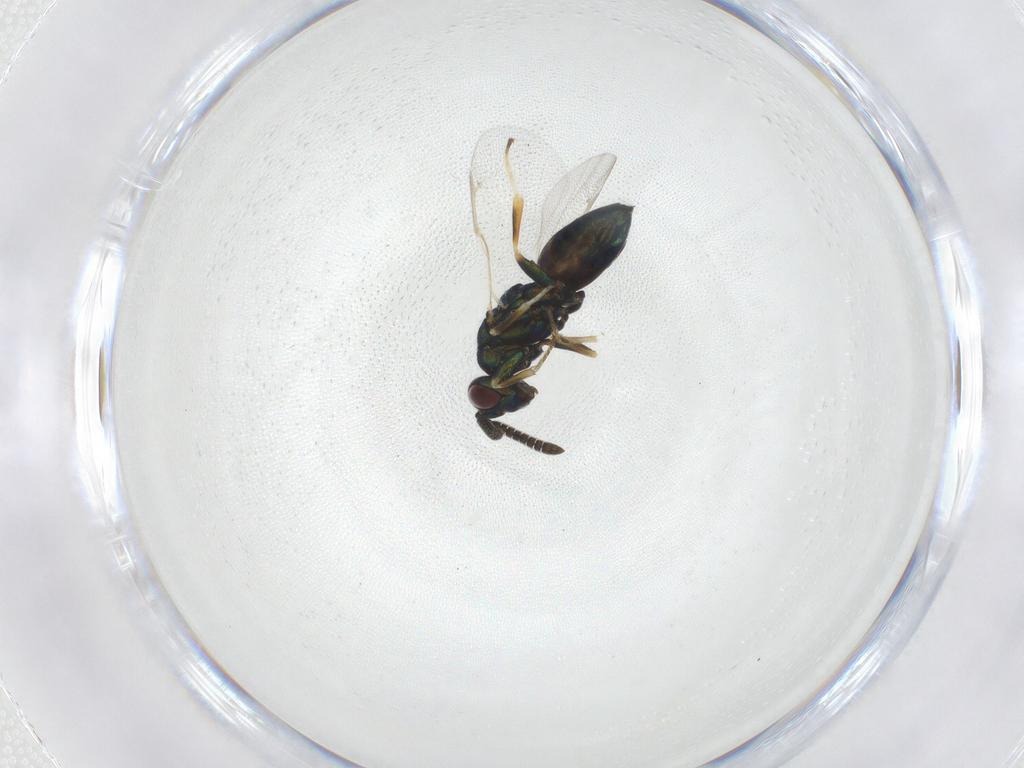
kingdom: Animalia
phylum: Arthropoda
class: Insecta
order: Hymenoptera
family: Torymidae
